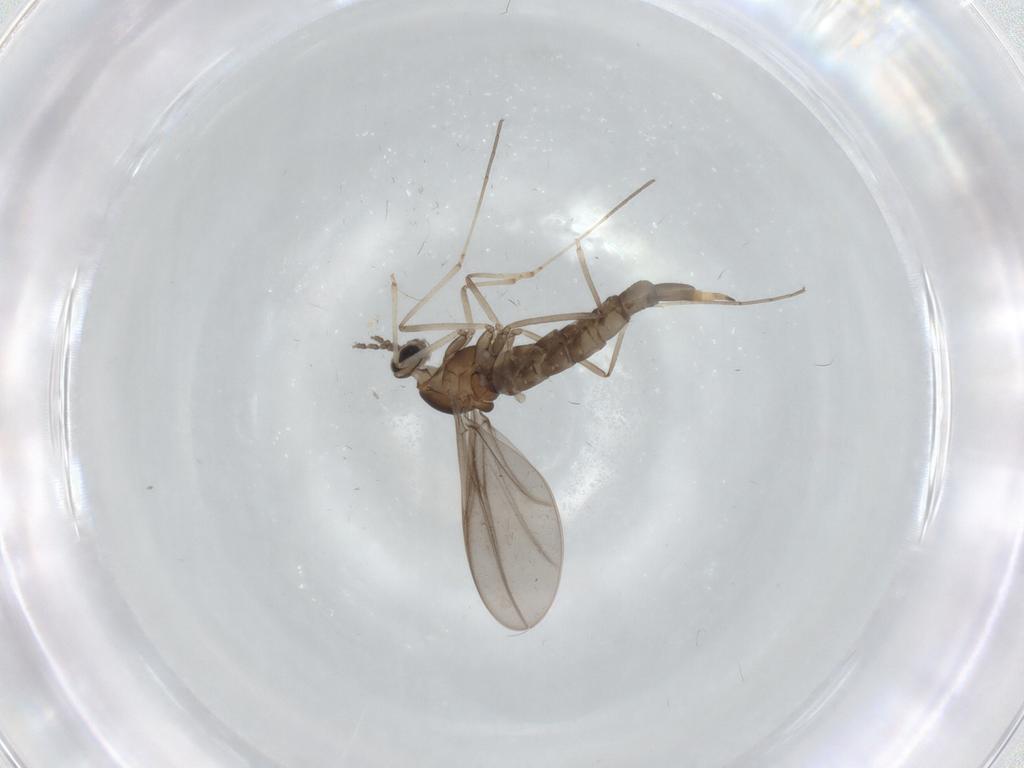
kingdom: Animalia
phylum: Arthropoda
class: Insecta
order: Diptera
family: Cecidomyiidae
